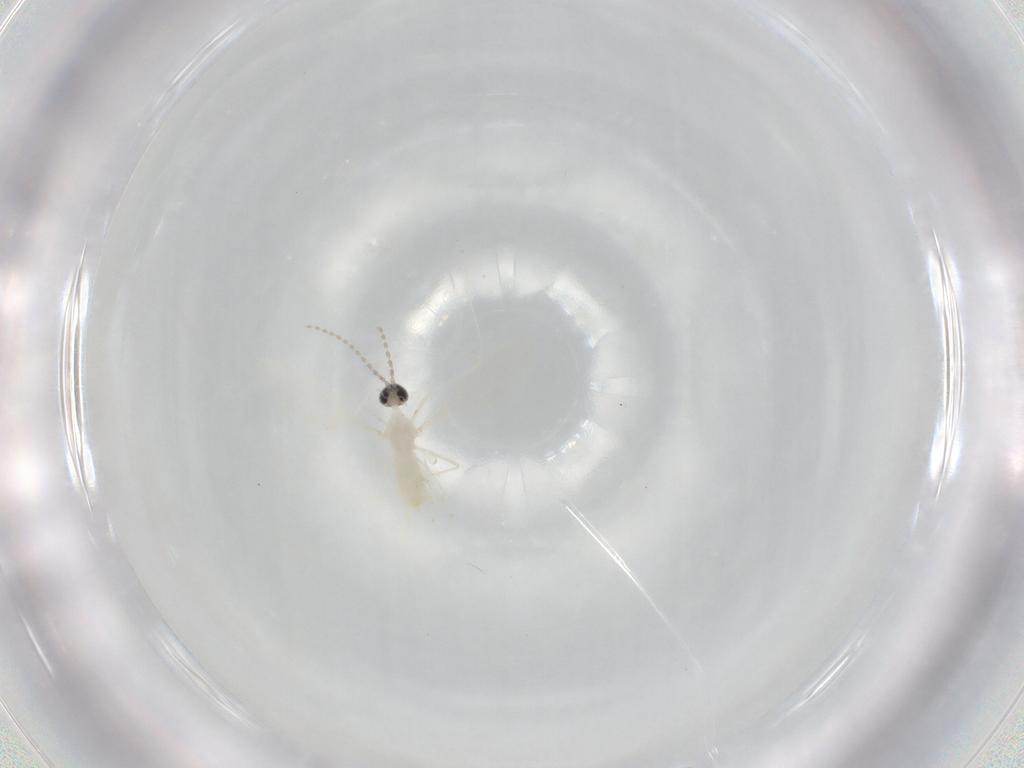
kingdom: Animalia
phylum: Arthropoda
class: Insecta
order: Diptera
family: Cecidomyiidae
